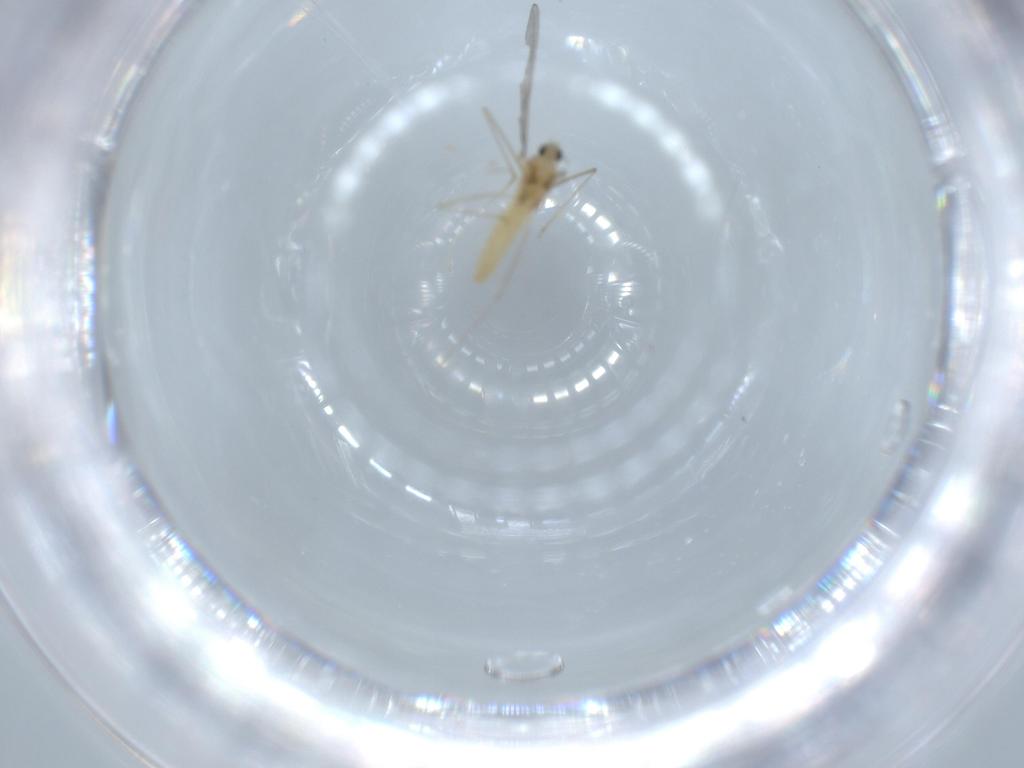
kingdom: Animalia
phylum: Arthropoda
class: Insecta
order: Diptera
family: Cecidomyiidae
